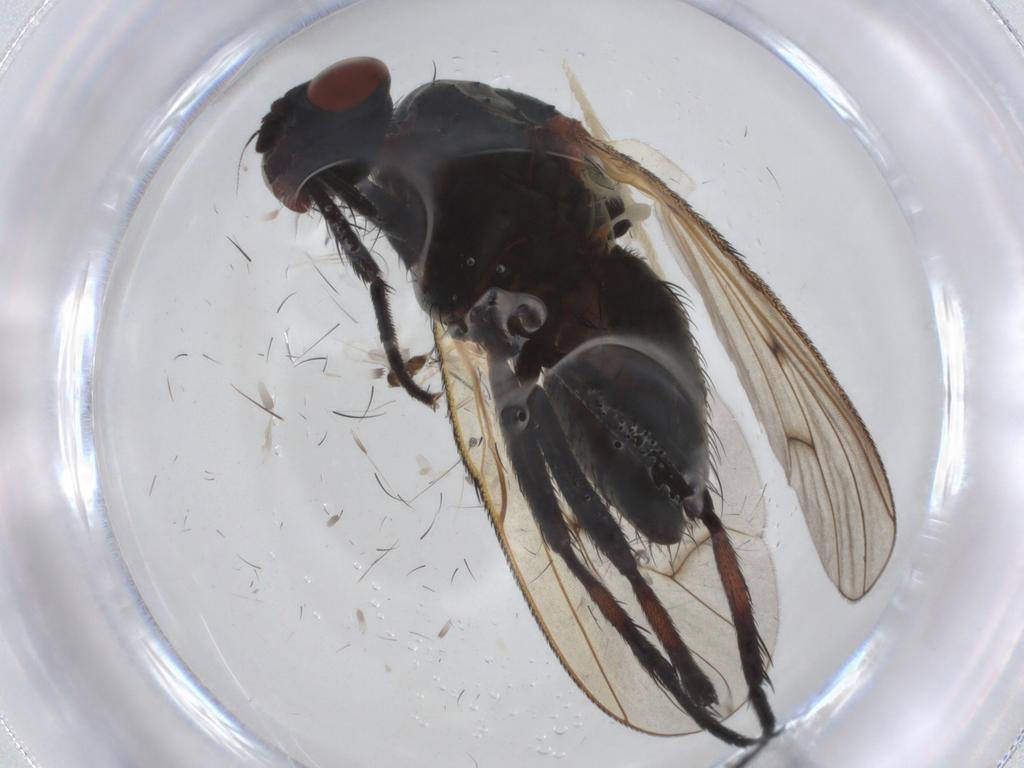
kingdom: Animalia
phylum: Arthropoda
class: Insecta
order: Diptera
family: Anthomyiidae
